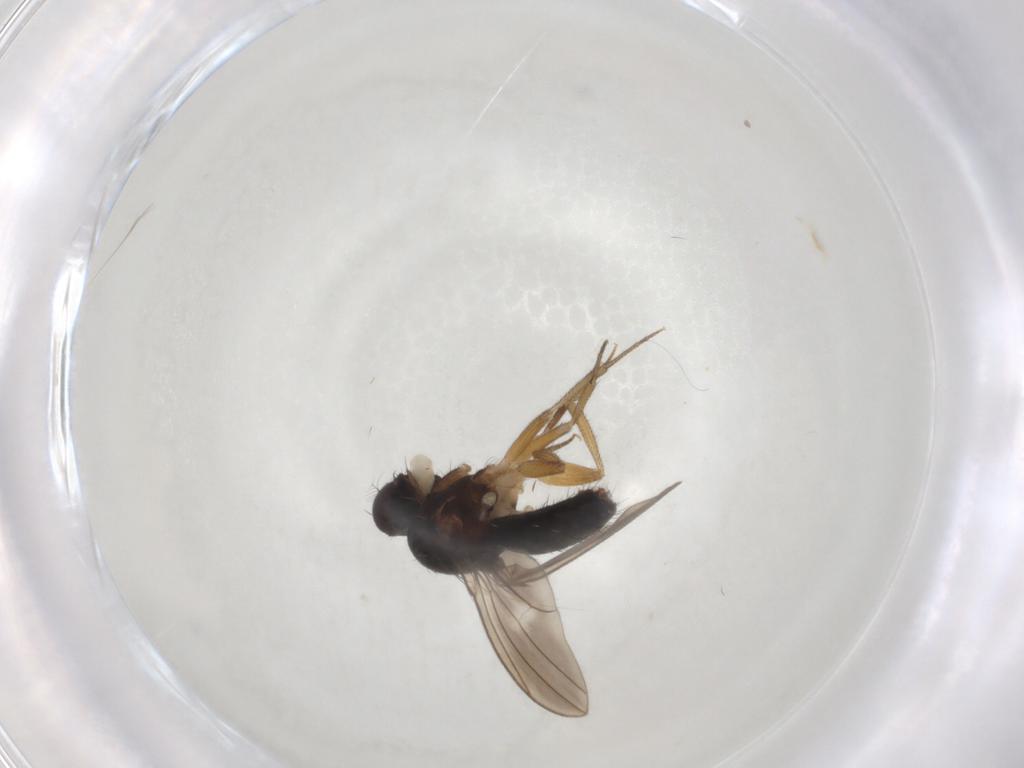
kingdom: Animalia
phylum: Arthropoda
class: Insecta
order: Diptera
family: Drosophilidae
